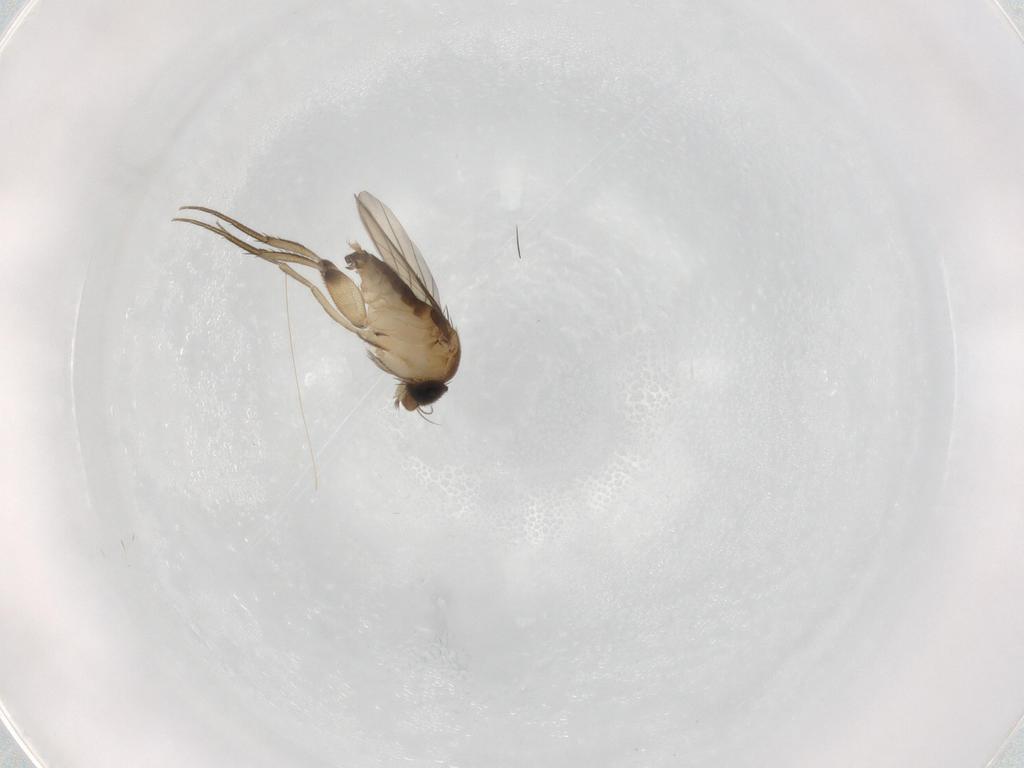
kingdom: Animalia
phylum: Arthropoda
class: Insecta
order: Diptera
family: Phoridae
